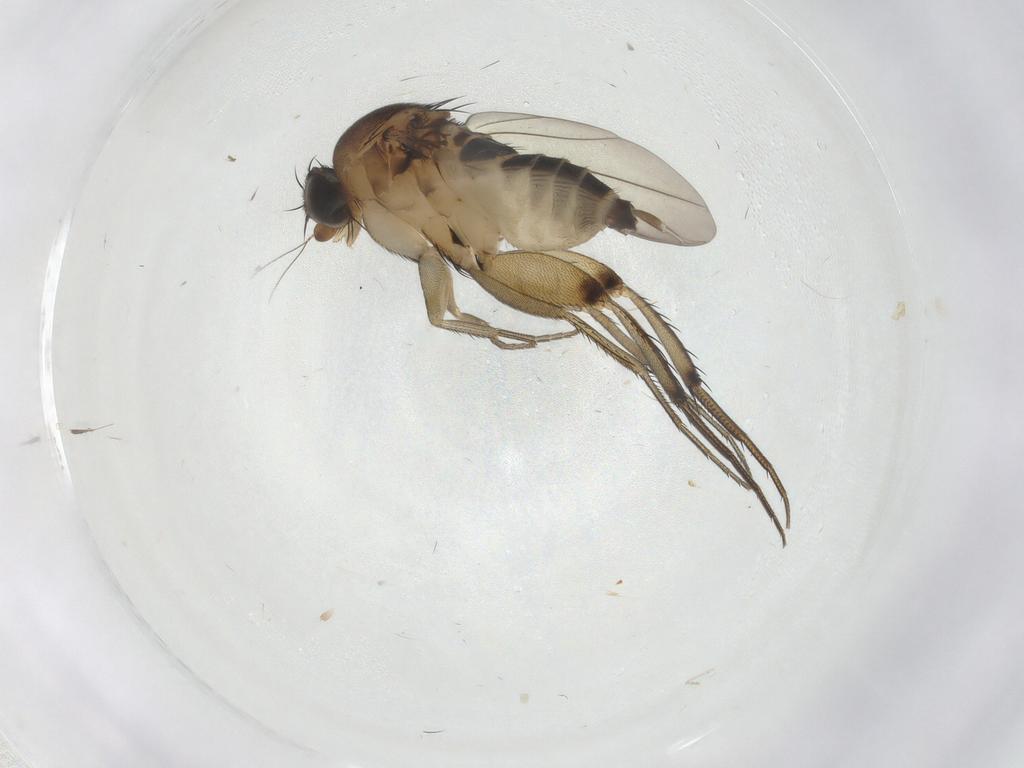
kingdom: Animalia
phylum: Arthropoda
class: Insecta
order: Diptera
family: Phoridae
